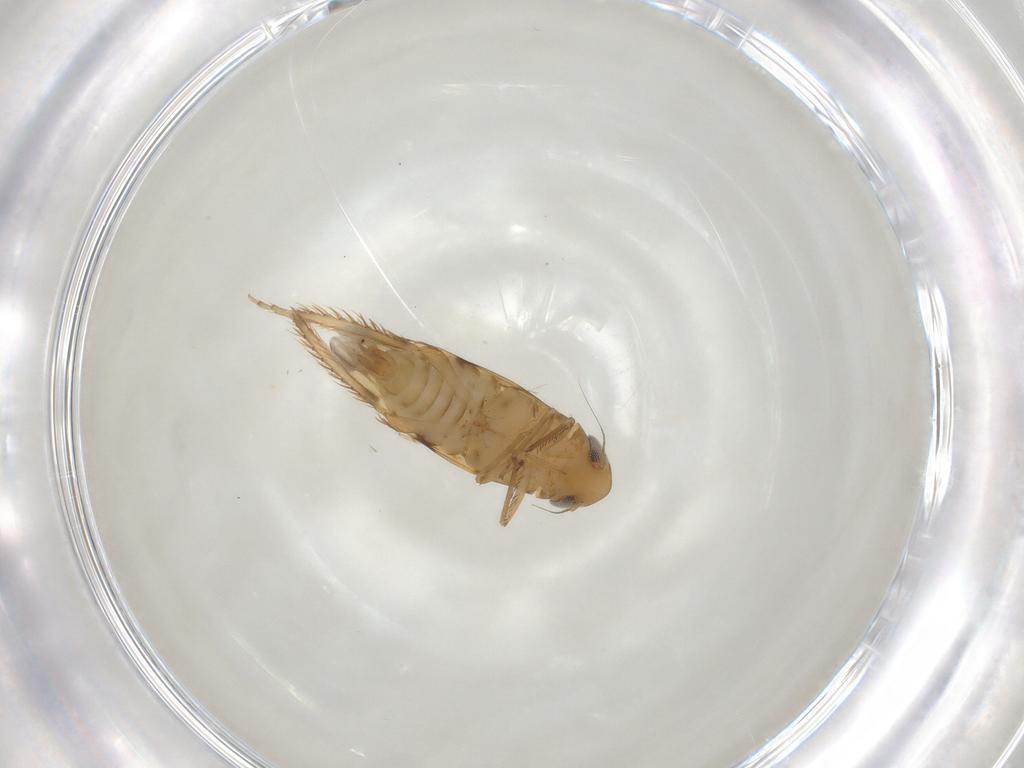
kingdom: Animalia
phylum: Arthropoda
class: Insecta
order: Hemiptera
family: Cicadellidae
